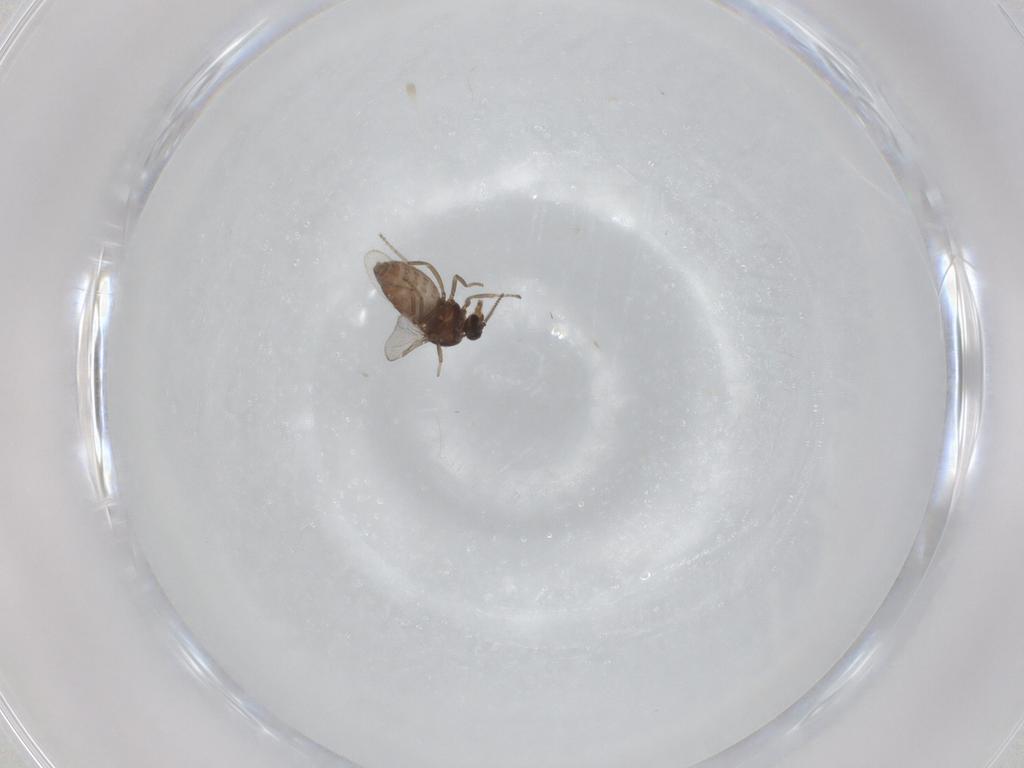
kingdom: Animalia
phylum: Arthropoda
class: Insecta
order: Diptera
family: Ceratopogonidae
